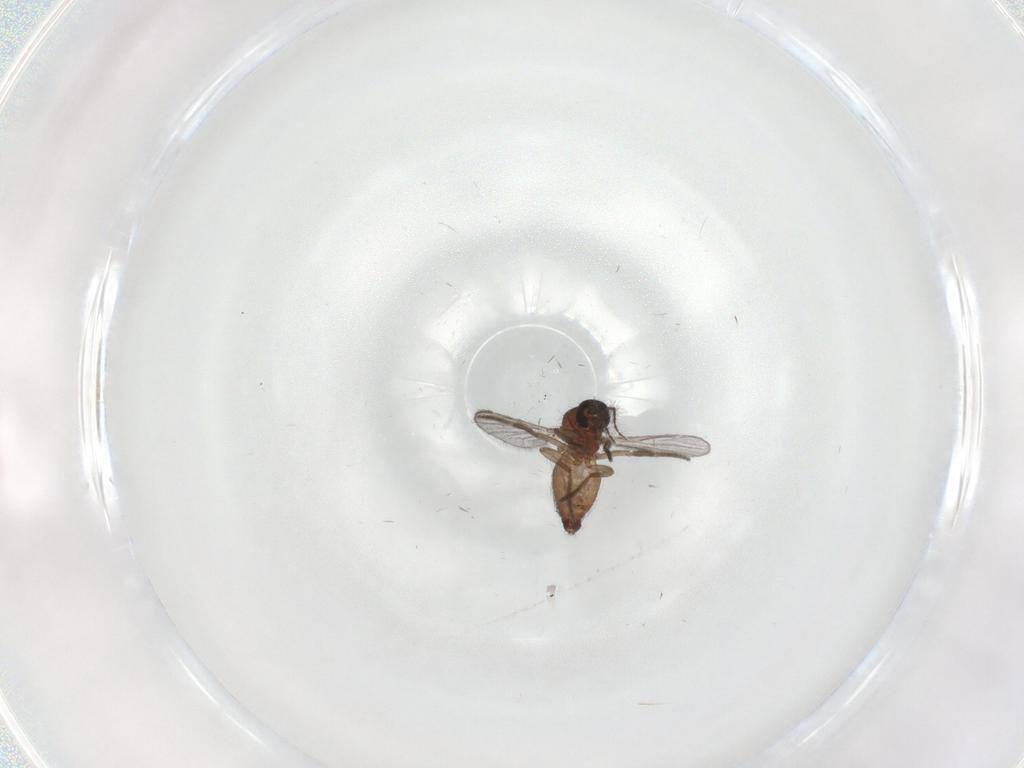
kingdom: Animalia
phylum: Arthropoda
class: Insecta
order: Diptera
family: Ceratopogonidae
